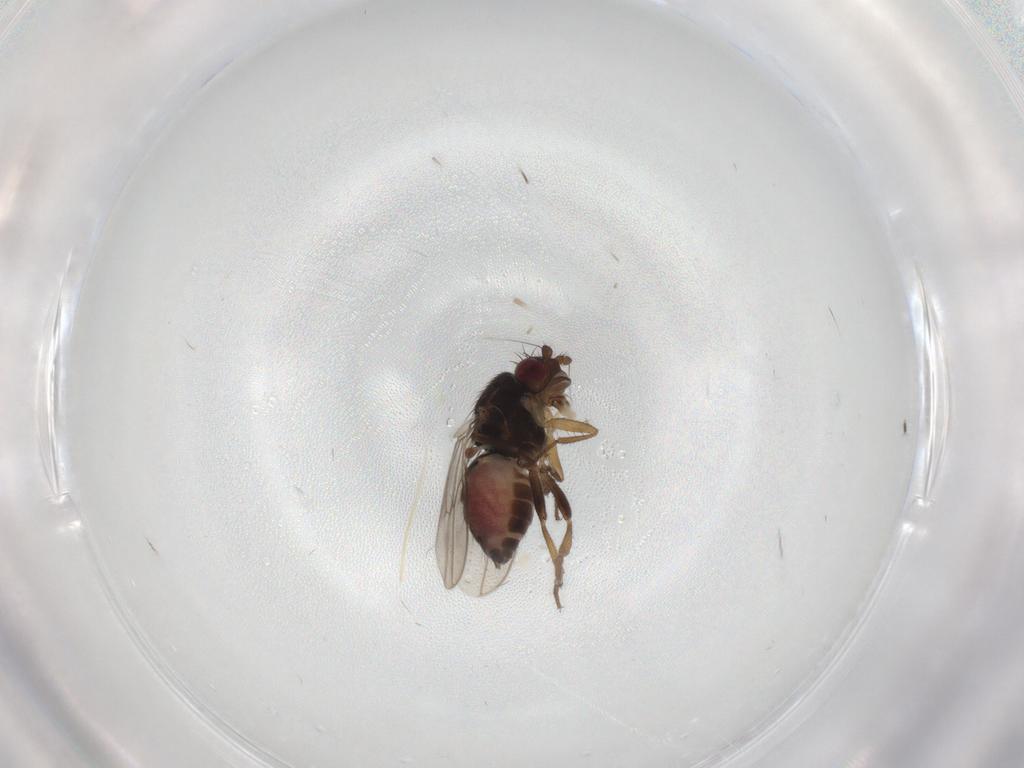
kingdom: Animalia
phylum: Arthropoda
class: Insecta
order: Diptera
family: Sphaeroceridae
